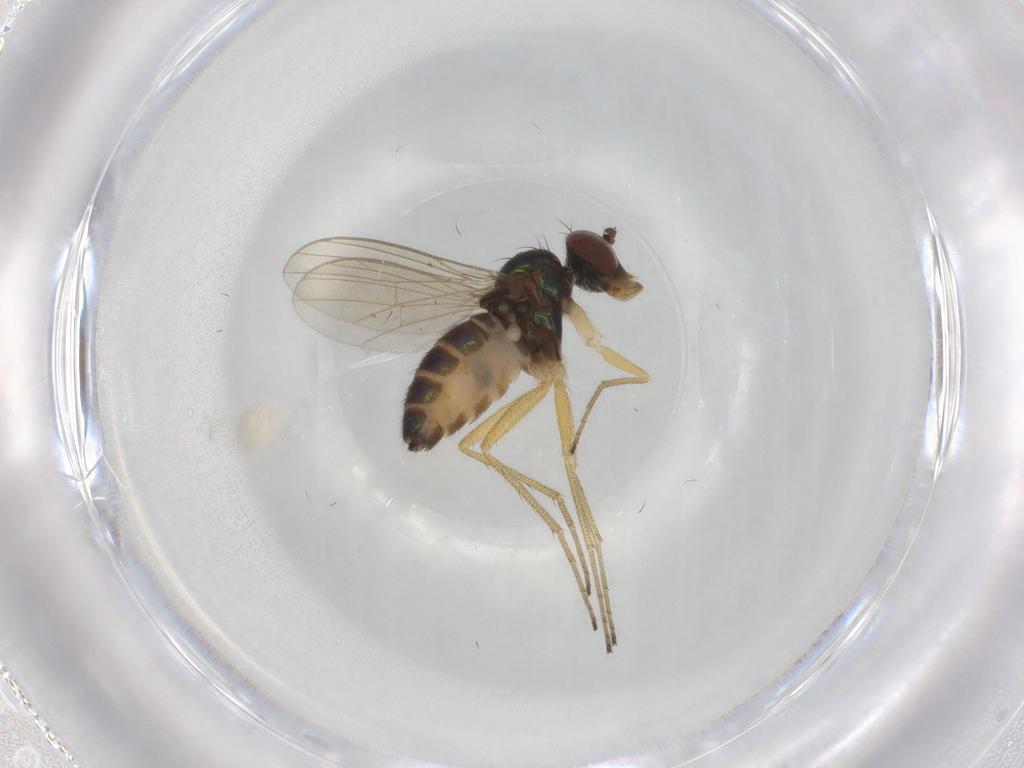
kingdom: Animalia
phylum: Arthropoda
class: Insecta
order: Diptera
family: Dolichopodidae
